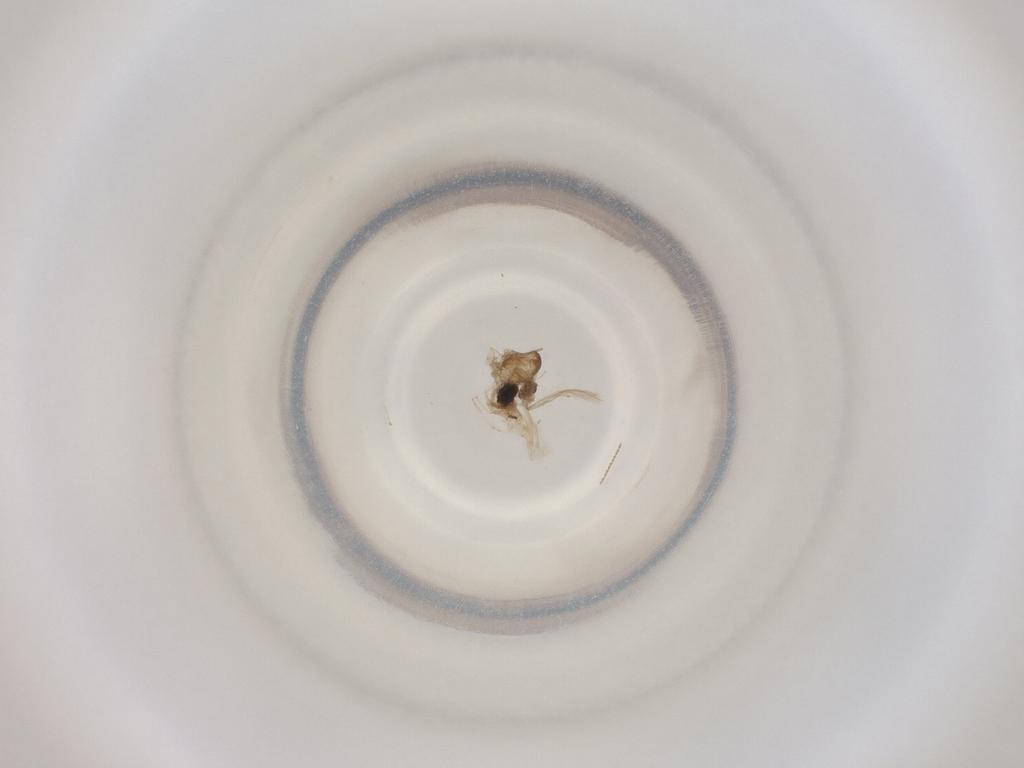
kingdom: Animalia
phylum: Arthropoda
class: Insecta
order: Diptera
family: Cecidomyiidae
